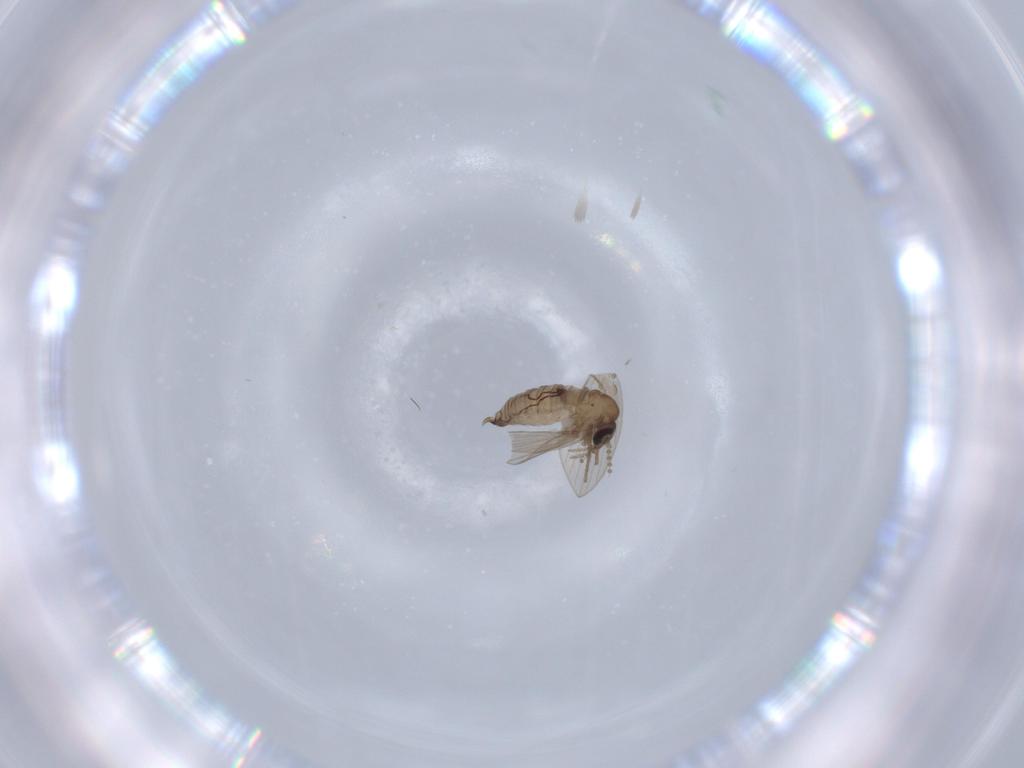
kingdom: Animalia
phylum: Arthropoda
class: Insecta
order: Diptera
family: Psychodidae
